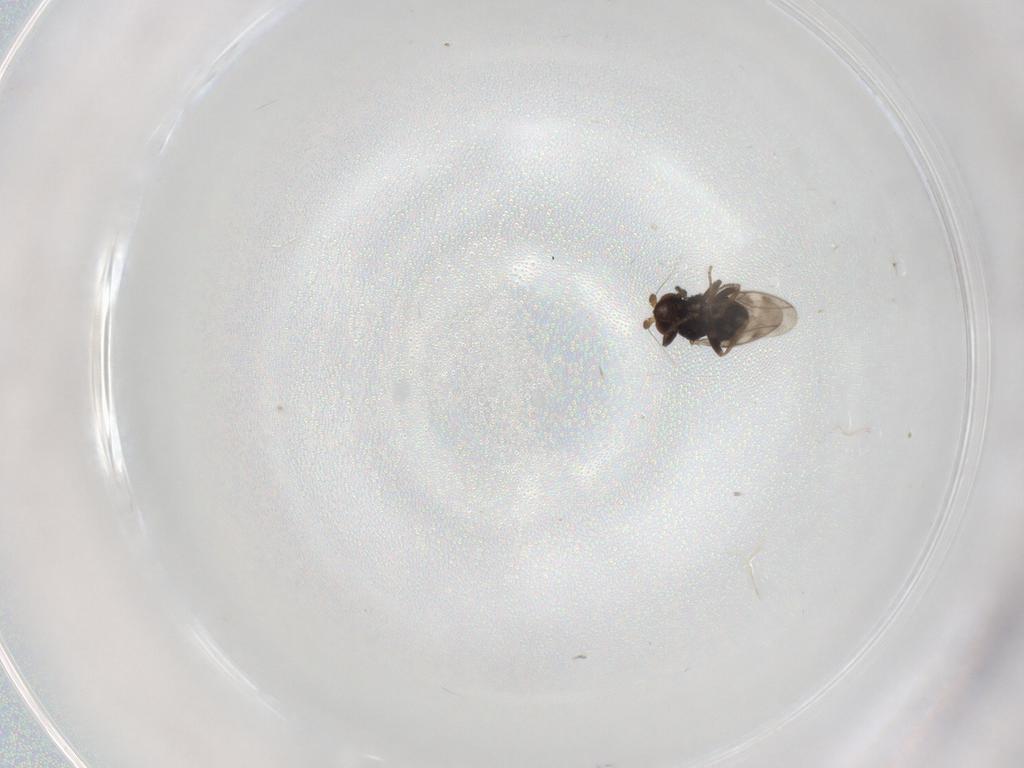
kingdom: Animalia
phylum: Arthropoda
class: Insecta
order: Diptera
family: Sphaeroceridae
